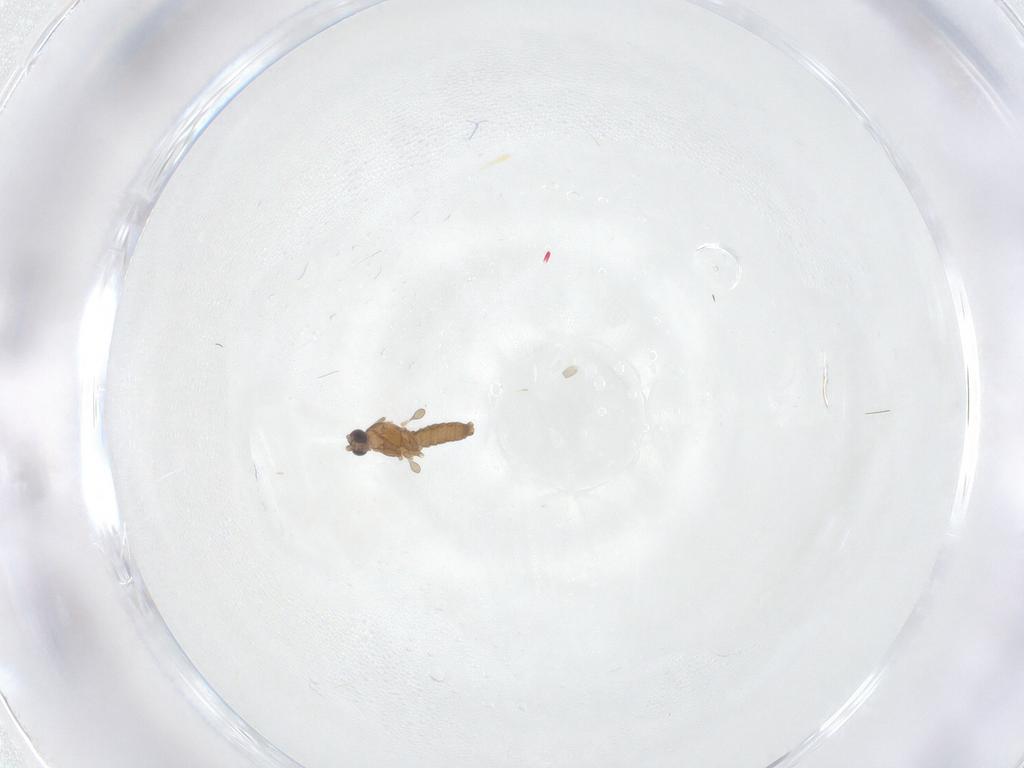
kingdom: Animalia
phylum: Arthropoda
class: Insecta
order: Diptera
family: Cecidomyiidae
